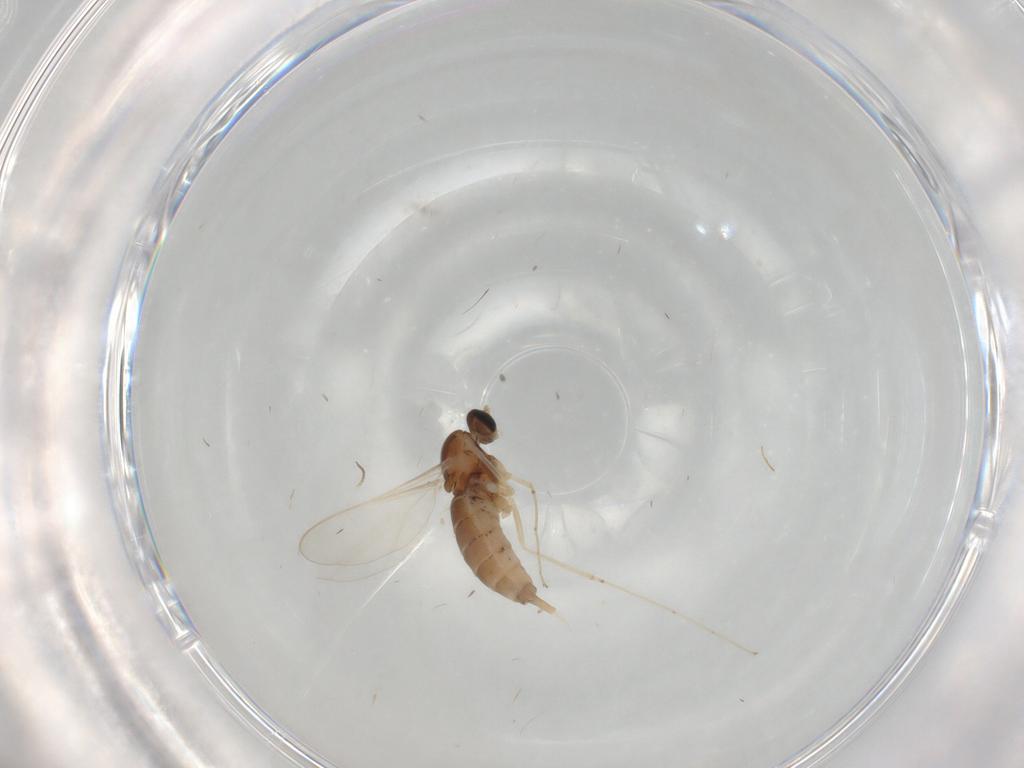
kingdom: Animalia
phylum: Arthropoda
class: Insecta
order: Diptera
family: Cecidomyiidae
